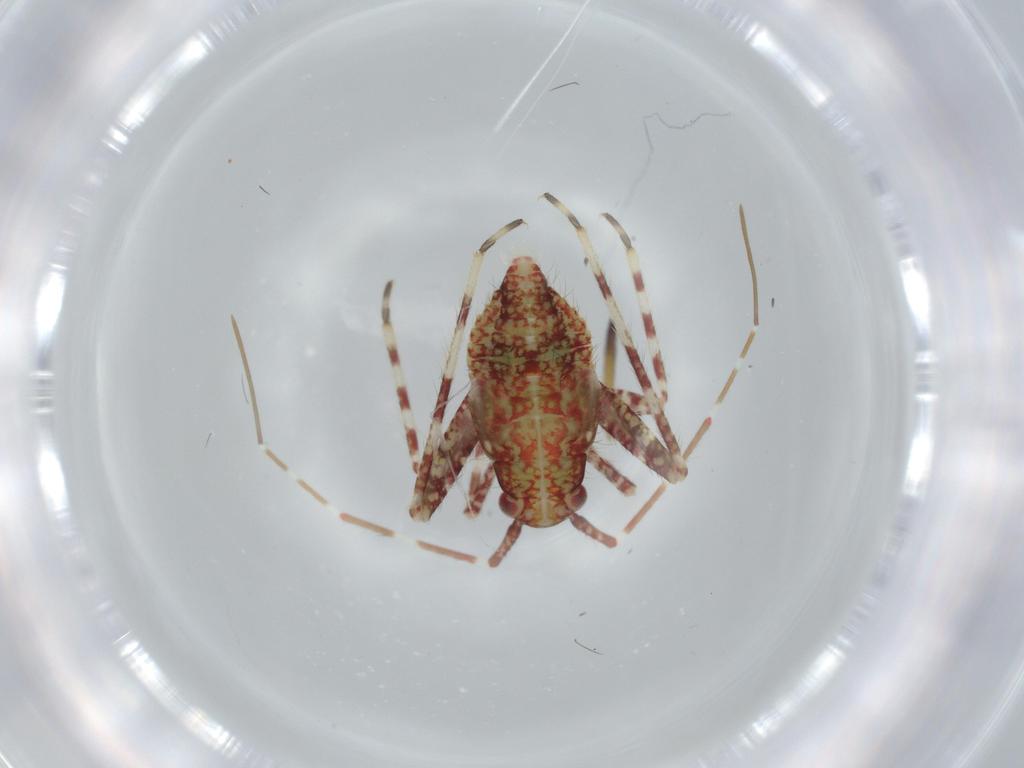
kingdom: Animalia
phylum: Arthropoda
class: Insecta
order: Hemiptera
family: Miridae
